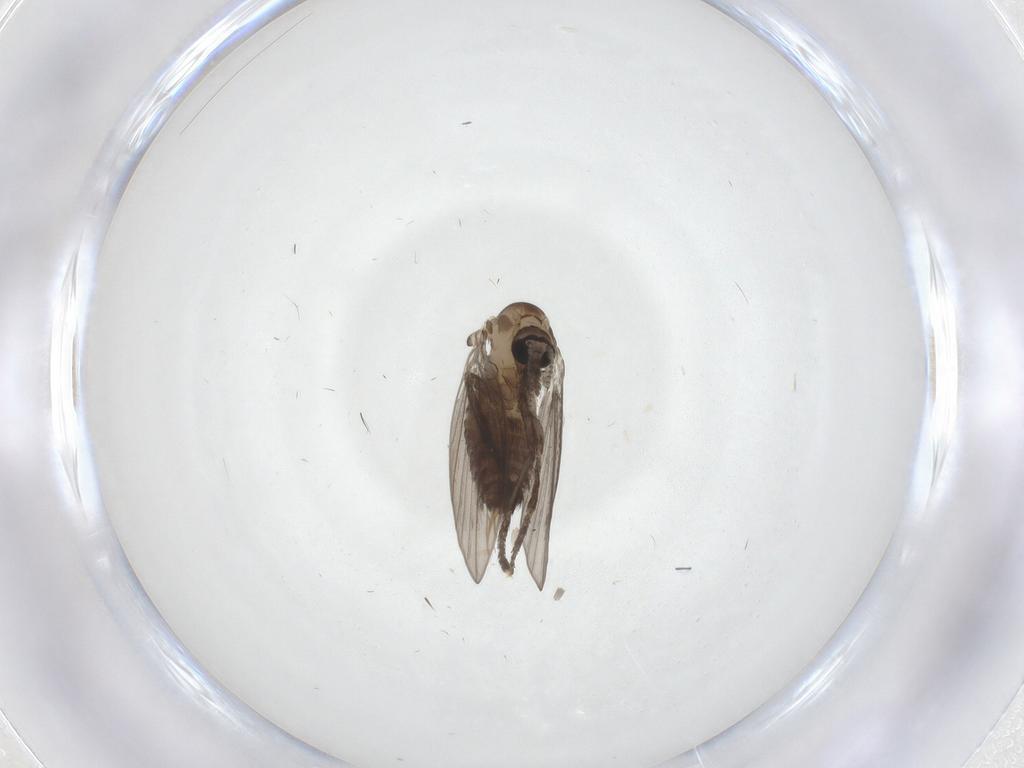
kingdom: Animalia
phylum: Arthropoda
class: Insecta
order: Diptera
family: Psychodidae
